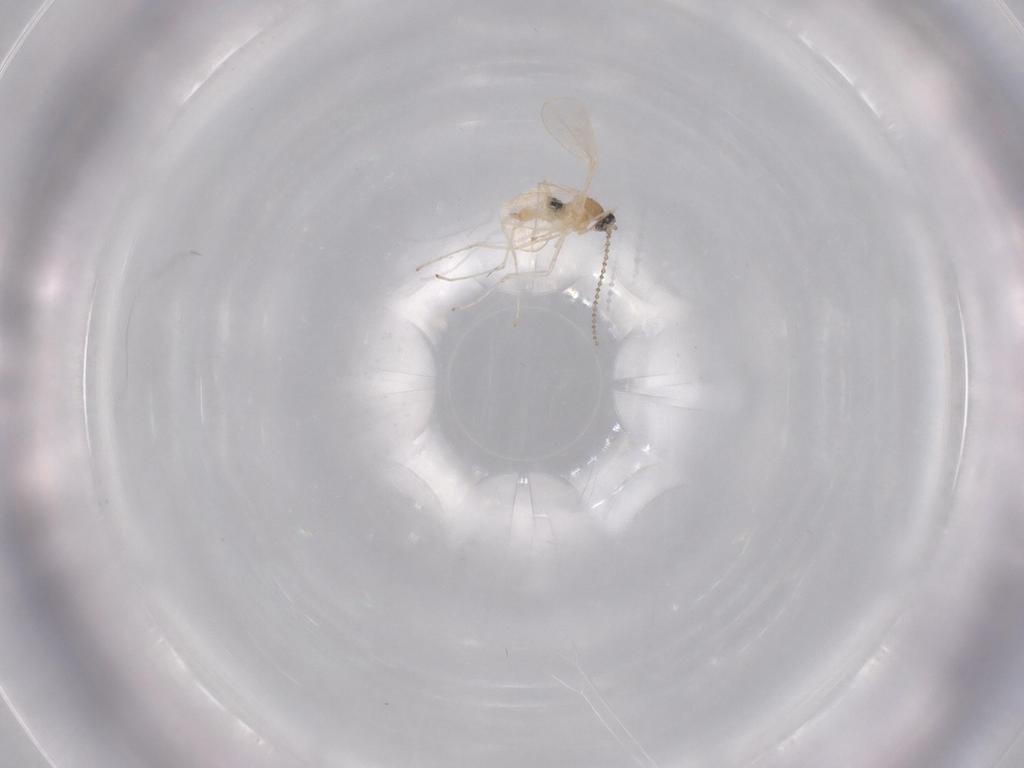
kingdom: Animalia
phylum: Arthropoda
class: Insecta
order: Diptera
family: Cecidomyiidae
